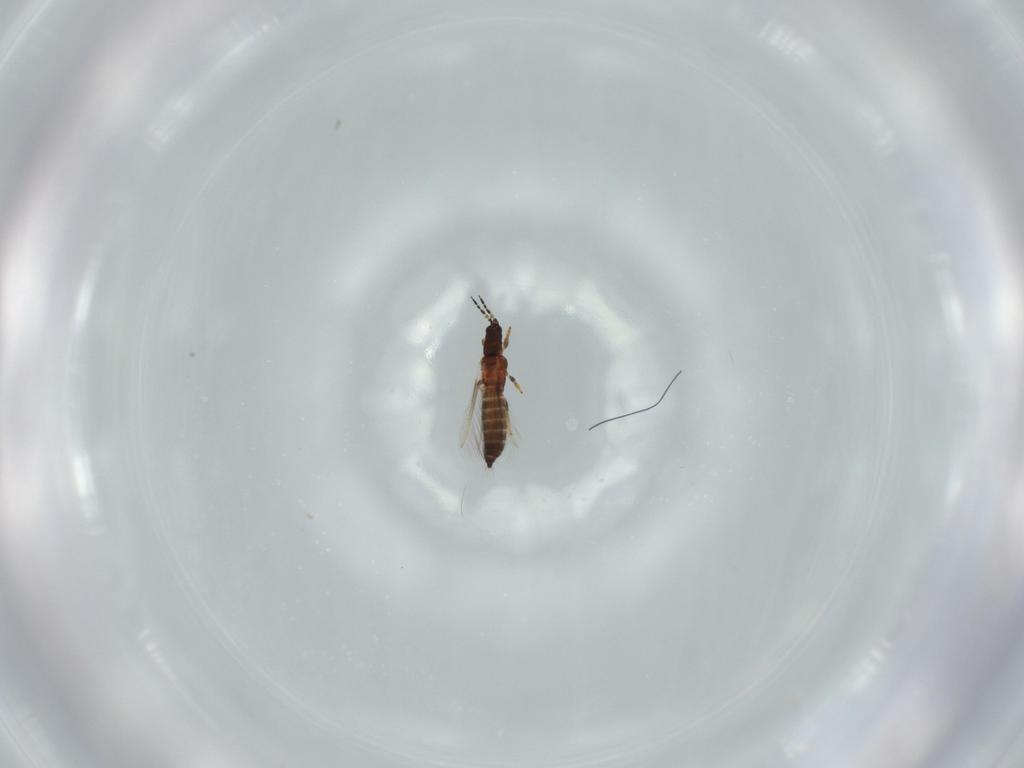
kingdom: Animalia
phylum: Arthropoda
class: Insecta
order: Thysanoptera
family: Thripidae
